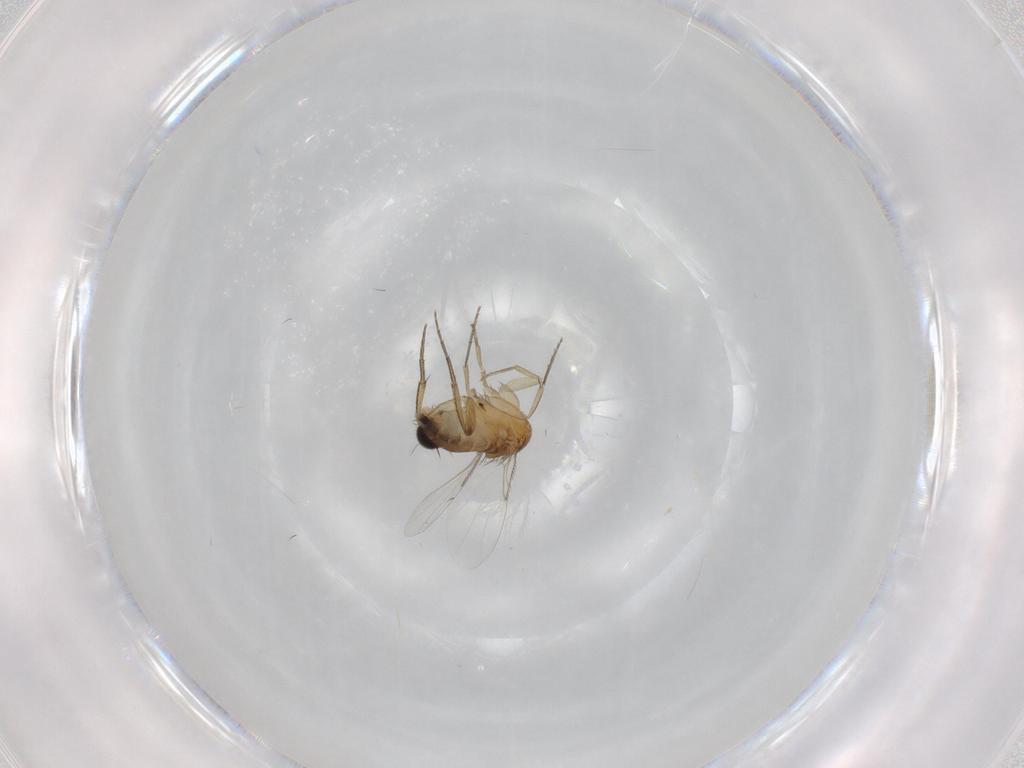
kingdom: Animalia
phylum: Arthropoda
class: Insecta
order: Diptera
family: Phoridae
